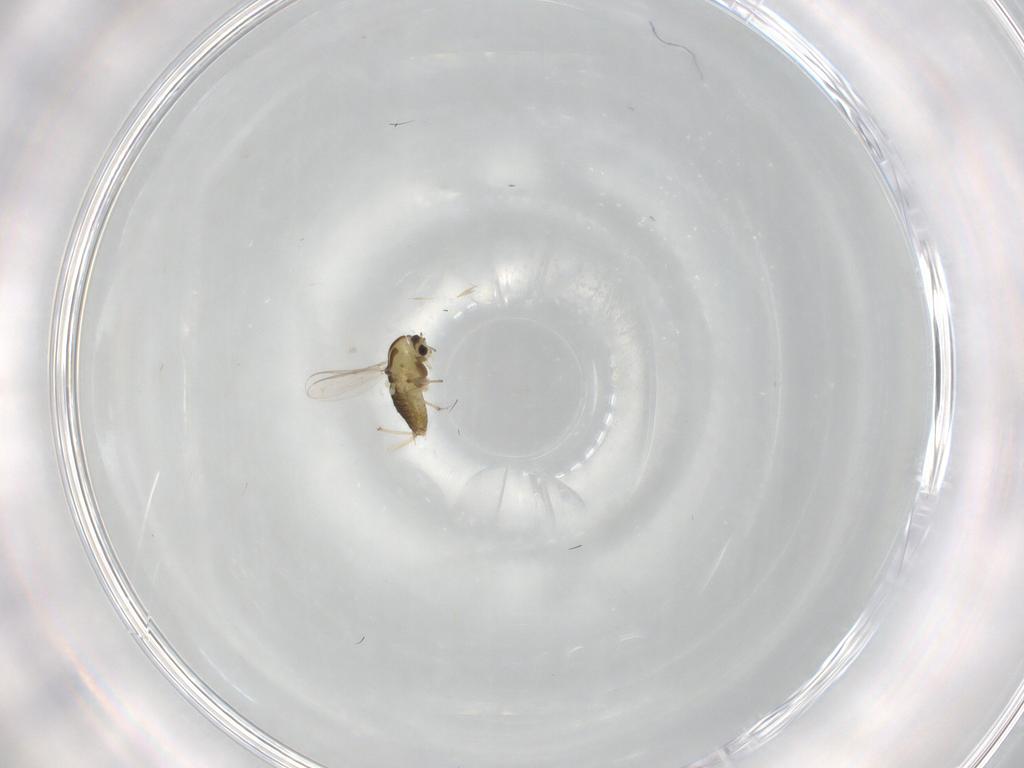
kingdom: Animalia
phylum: Arthropoda
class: Insecta
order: Diptera
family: Chironomidae
